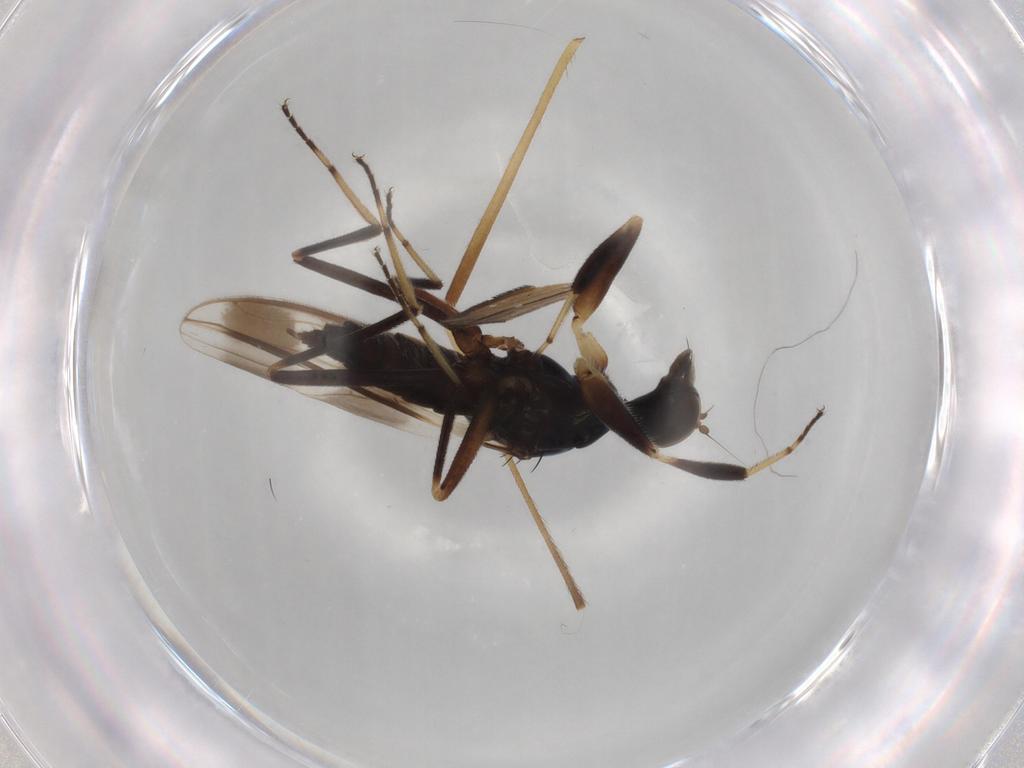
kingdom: Animalia
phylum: Arthropoda
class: Insecta
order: Diptera
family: Hybotidae
